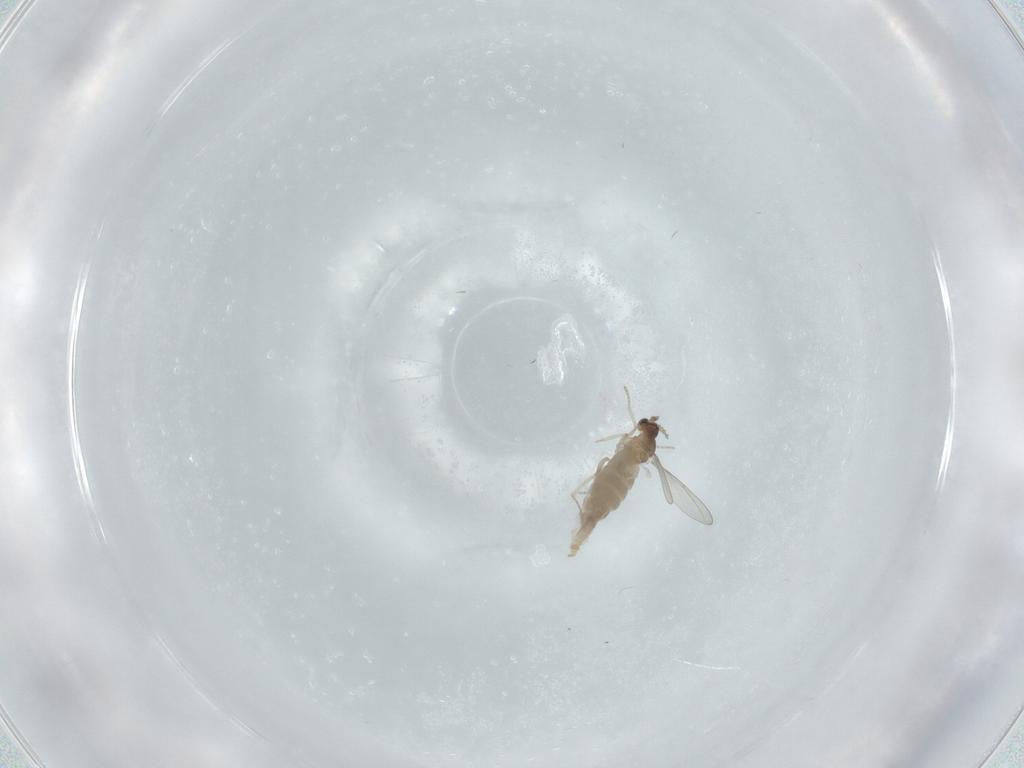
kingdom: Animalia
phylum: Arthropoda
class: Insecta
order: Diptera
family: Cecidomyiidae
